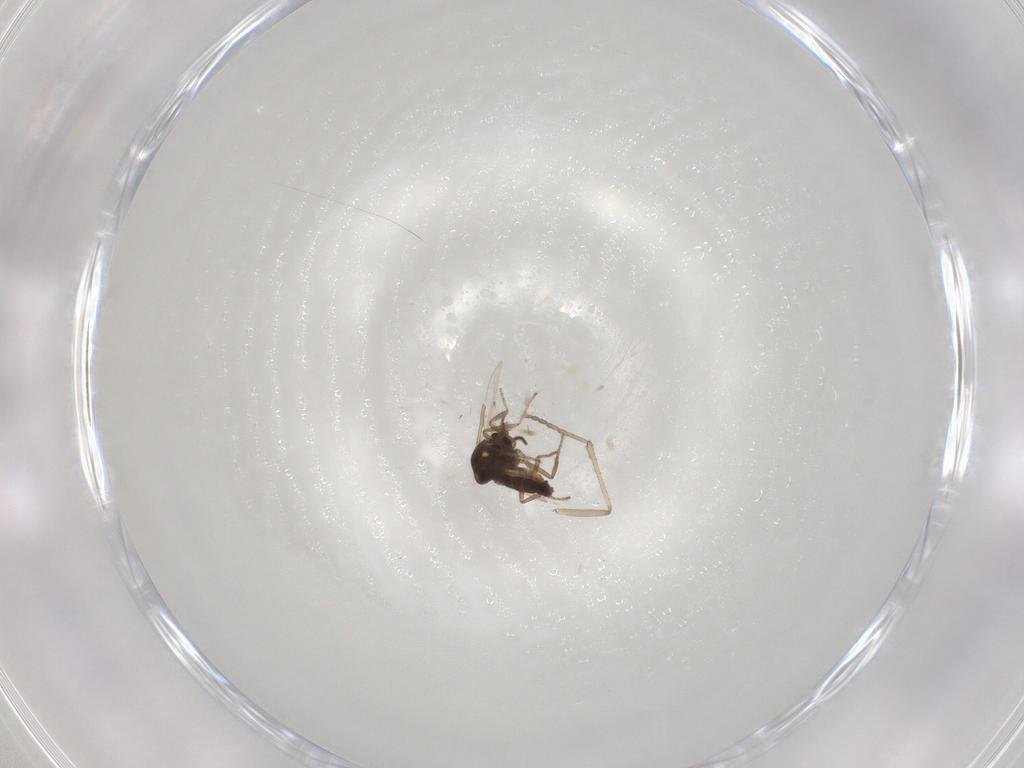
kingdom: Animalia
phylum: Arthropoda
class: Insecta
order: Diptera
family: Ceratopogonidae
